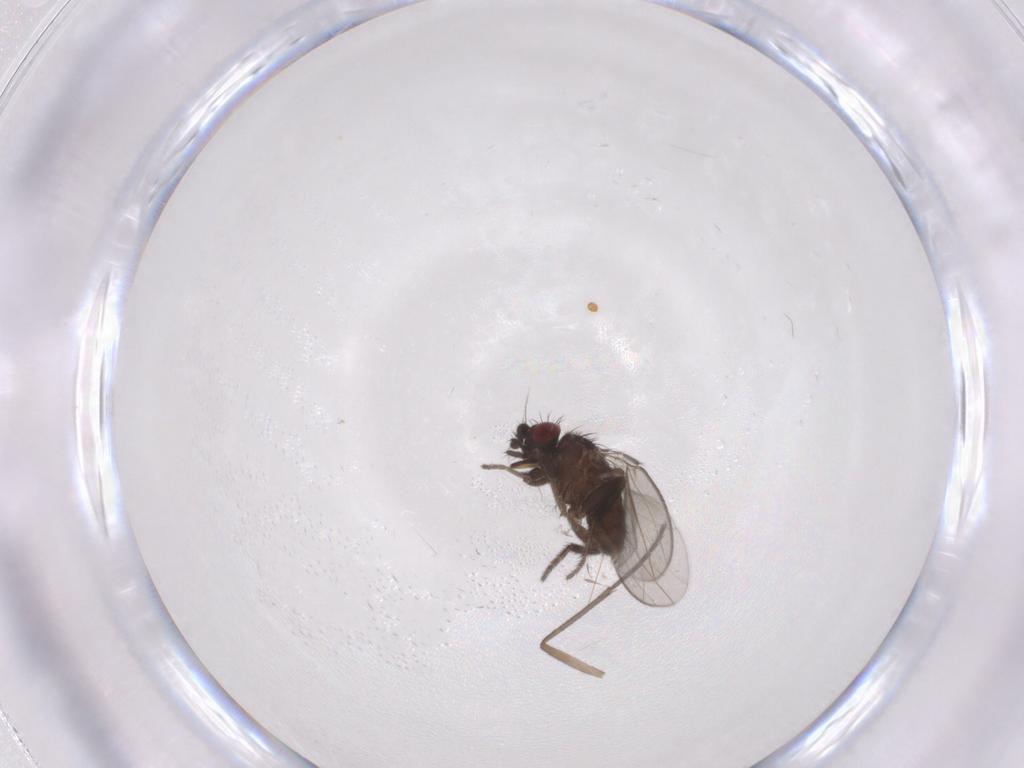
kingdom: Animalia
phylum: Arthropoda
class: Insecta
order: Diptera
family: Milichiidae
